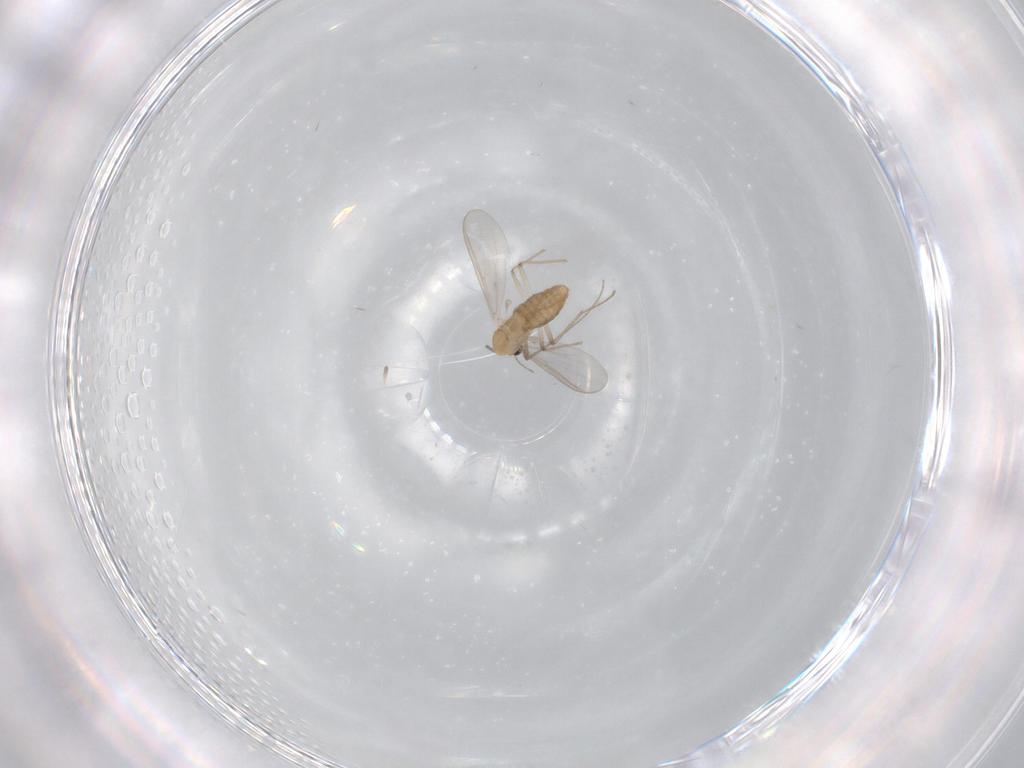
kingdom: Animalia
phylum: Arthropoda
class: Insecta
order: Diptera
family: Chironomidae
